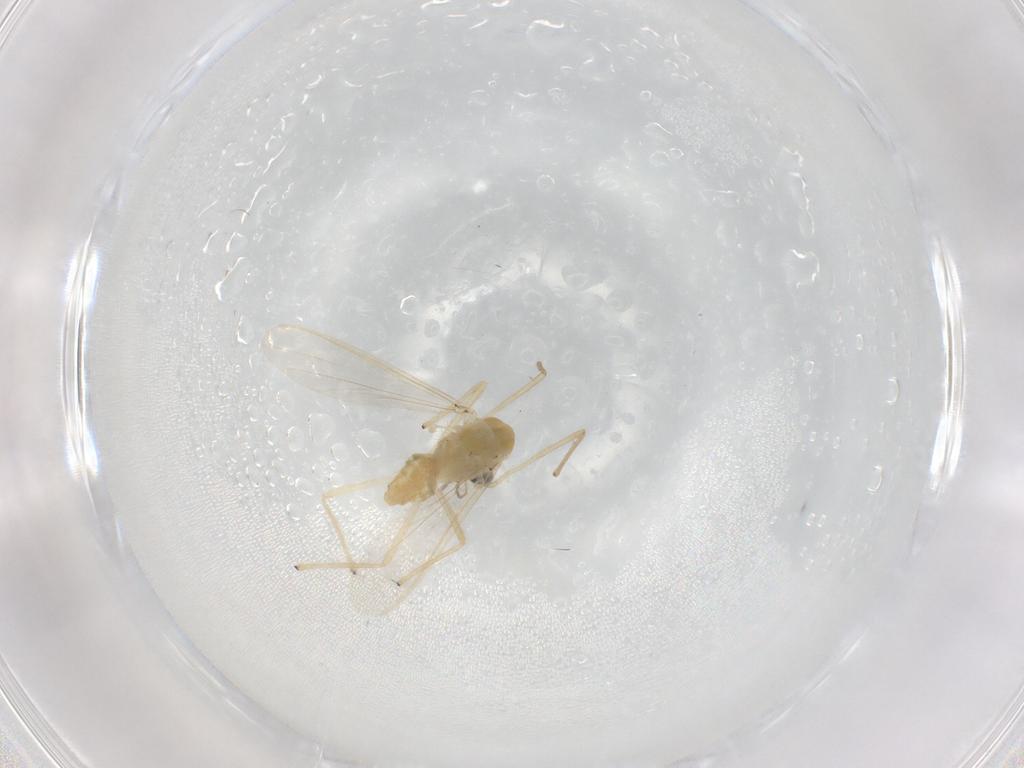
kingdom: Animalia
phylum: Arthropoda
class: Insecta
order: Diptera
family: Chironomidae
